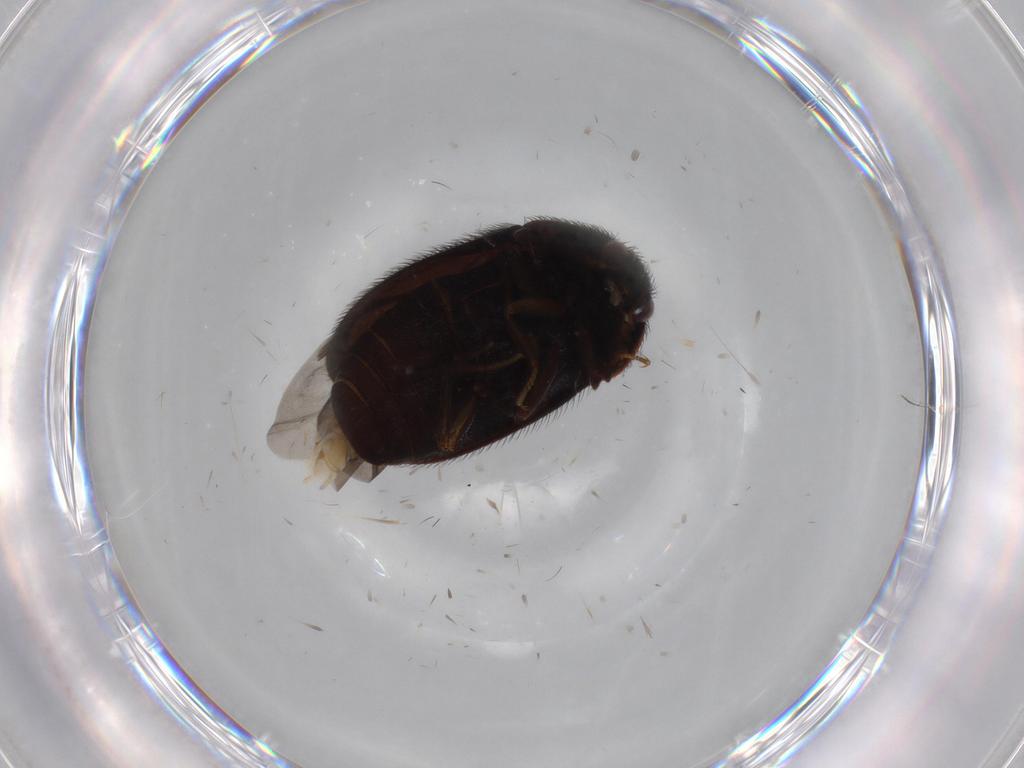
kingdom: Animalia
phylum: Arthropoda
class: Insecta
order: Coleoptera
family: Dermestidae
